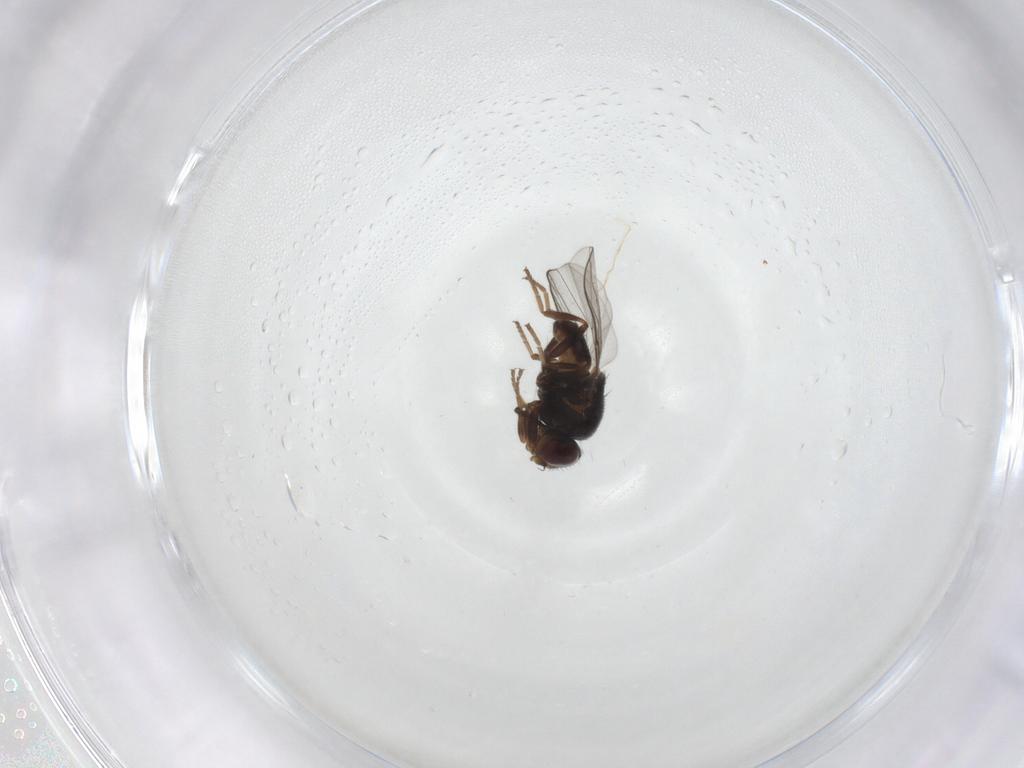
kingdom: Animalia
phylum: Arthropoda
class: Insecta
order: Diptera
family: Chloropidae
